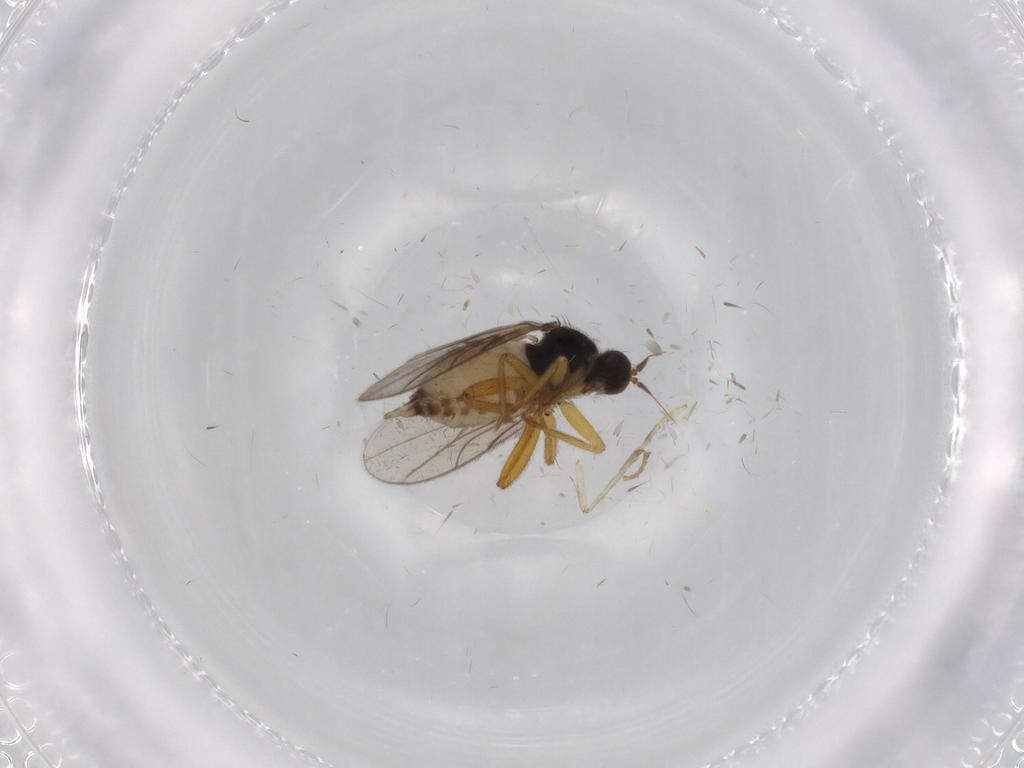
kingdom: Animalia
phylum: Arthropoda
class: Insecta
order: Diptera
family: Hybotidae
